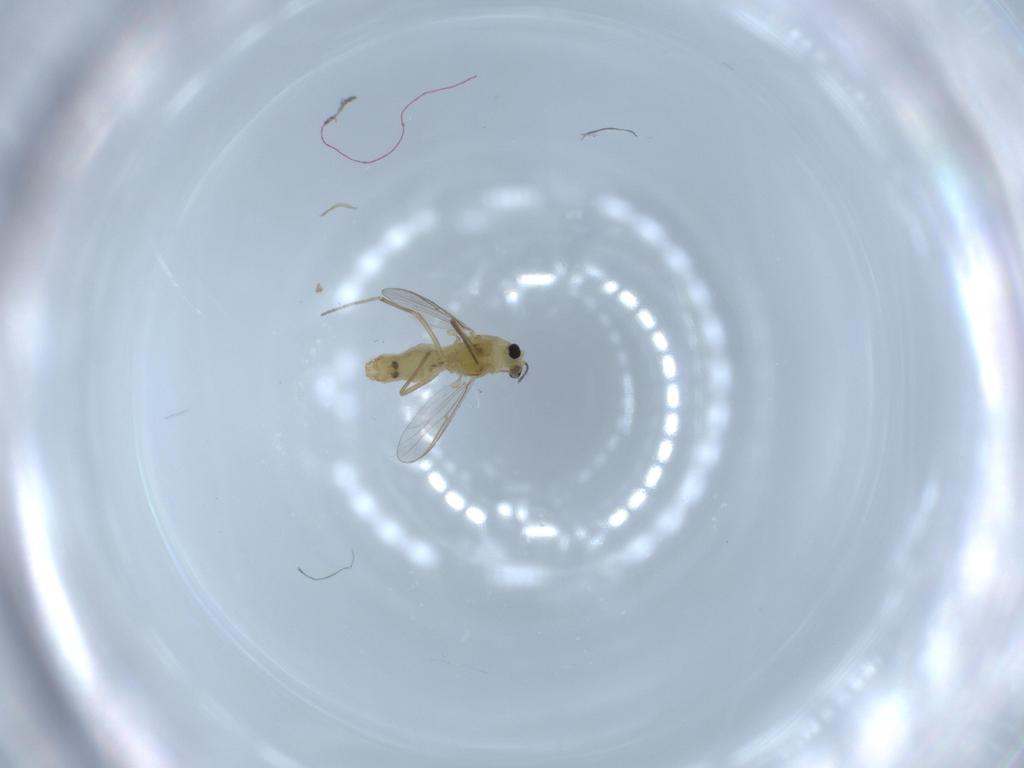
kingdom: Animalia
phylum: Arthropoda
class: Insecta
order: Diptera
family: Chironomidae
